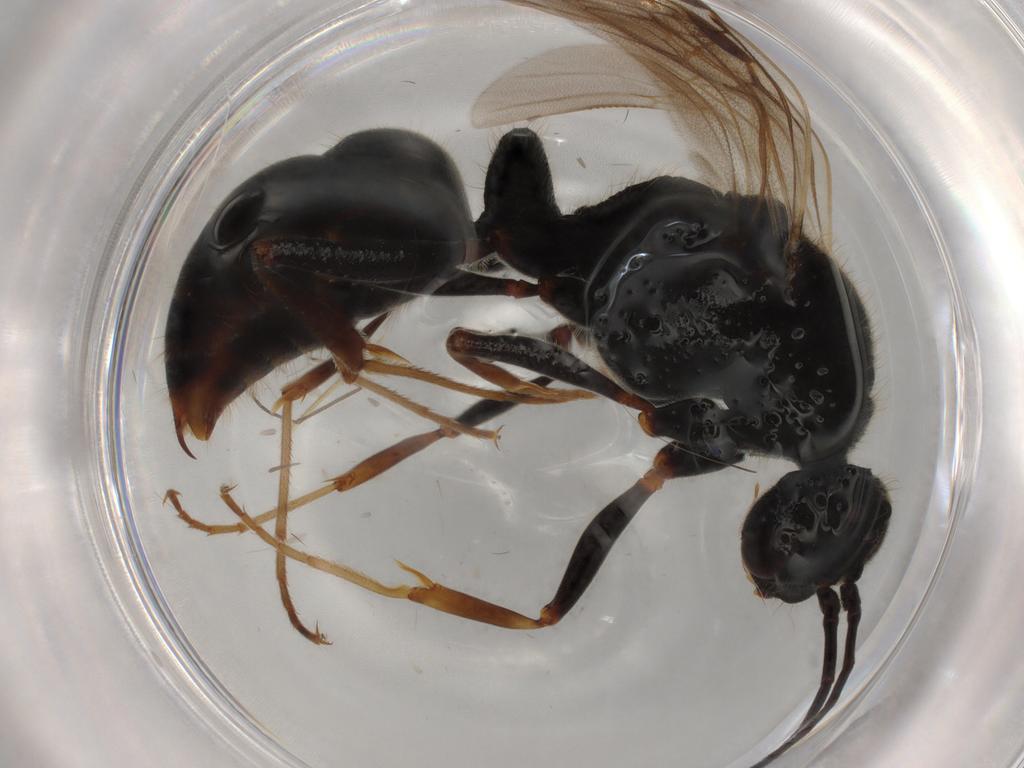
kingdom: Animalia
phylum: Arthropoda
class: Insecta
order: Hymenoptera
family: Formicidae
